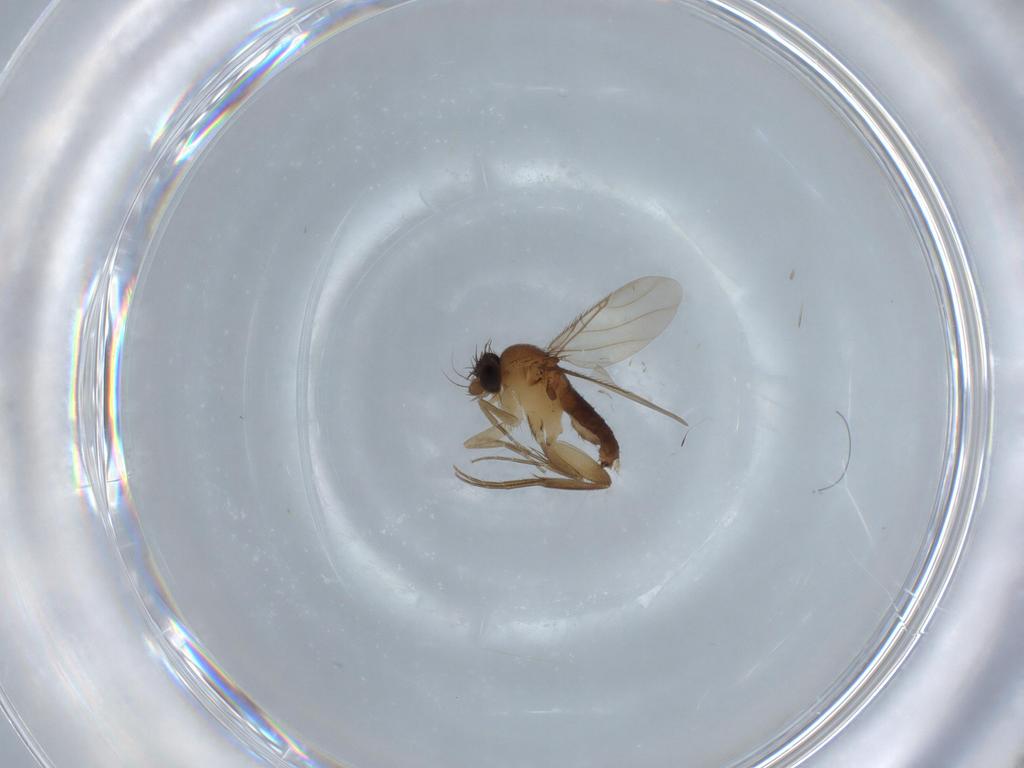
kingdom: Animalia
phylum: Arthropoda
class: Insecta
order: Diptera
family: Phoridae
